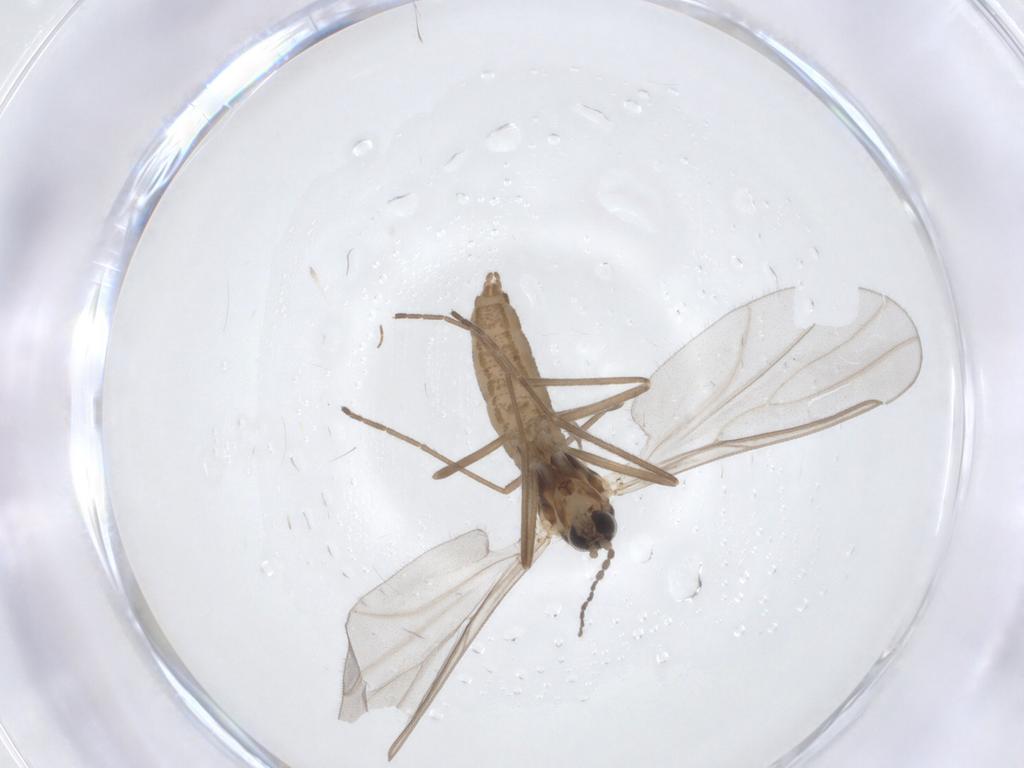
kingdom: Animalia
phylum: Arthropoda
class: Insecta
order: Diptera
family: Cecidomyiidae
